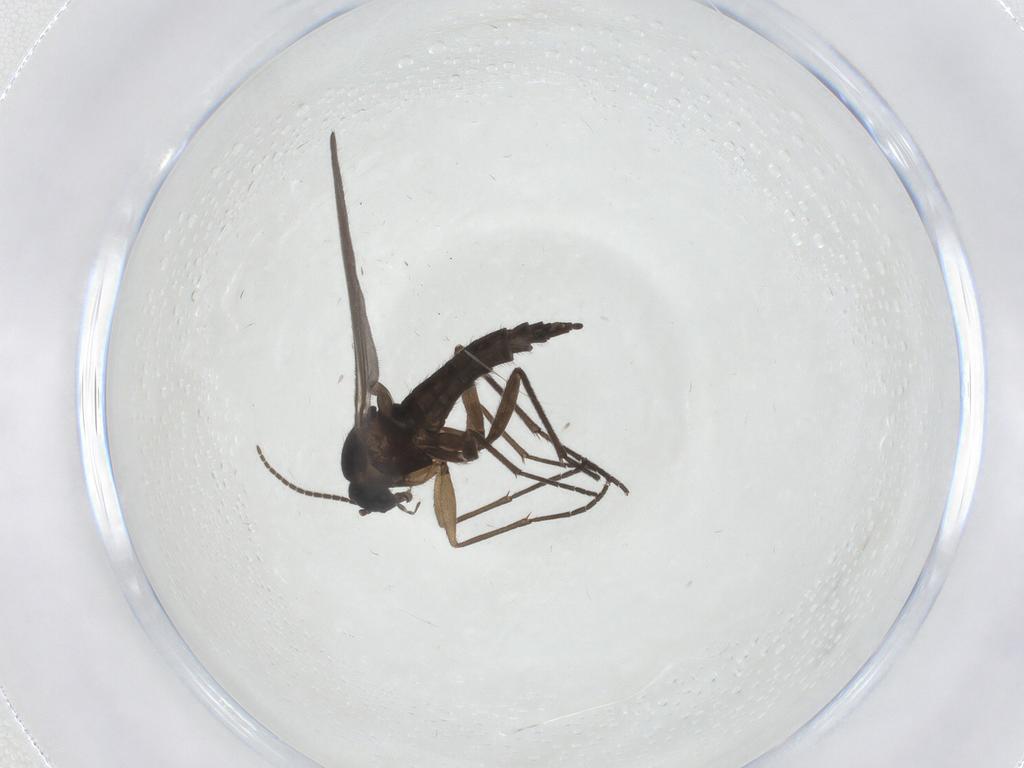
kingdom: Animalia
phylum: Arthropoda
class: Insecta
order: Diptera
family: Sciaridae
